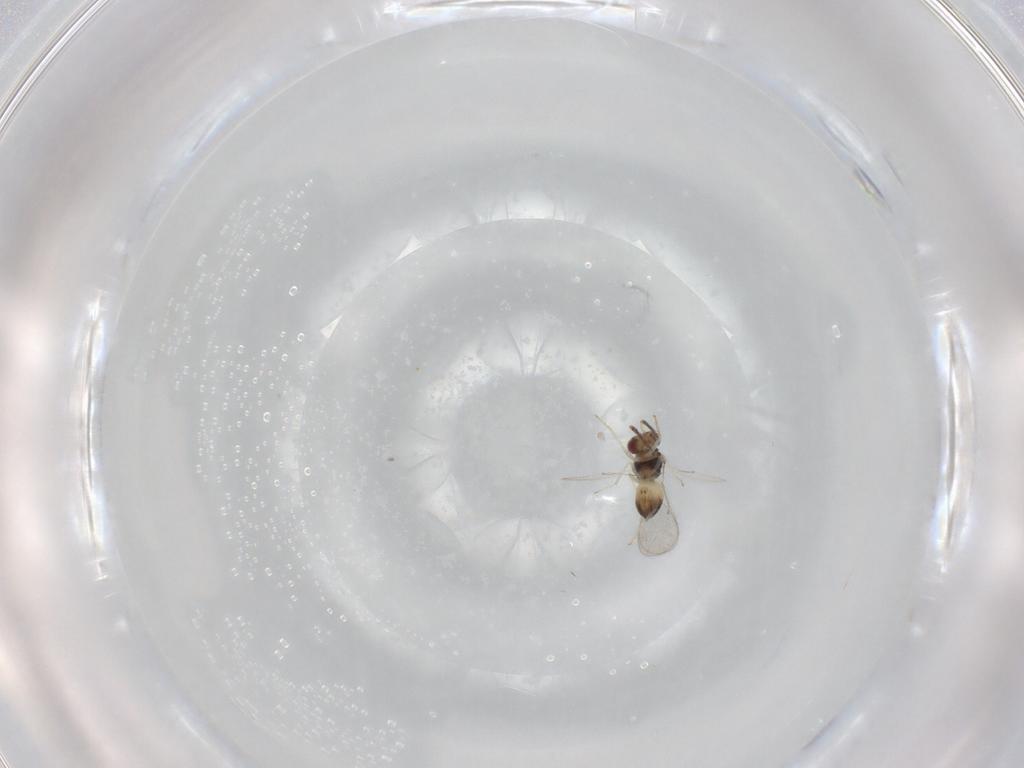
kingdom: Animalia
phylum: Arthropoda
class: Insecta
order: Hymenoptera
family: Eulophidae
